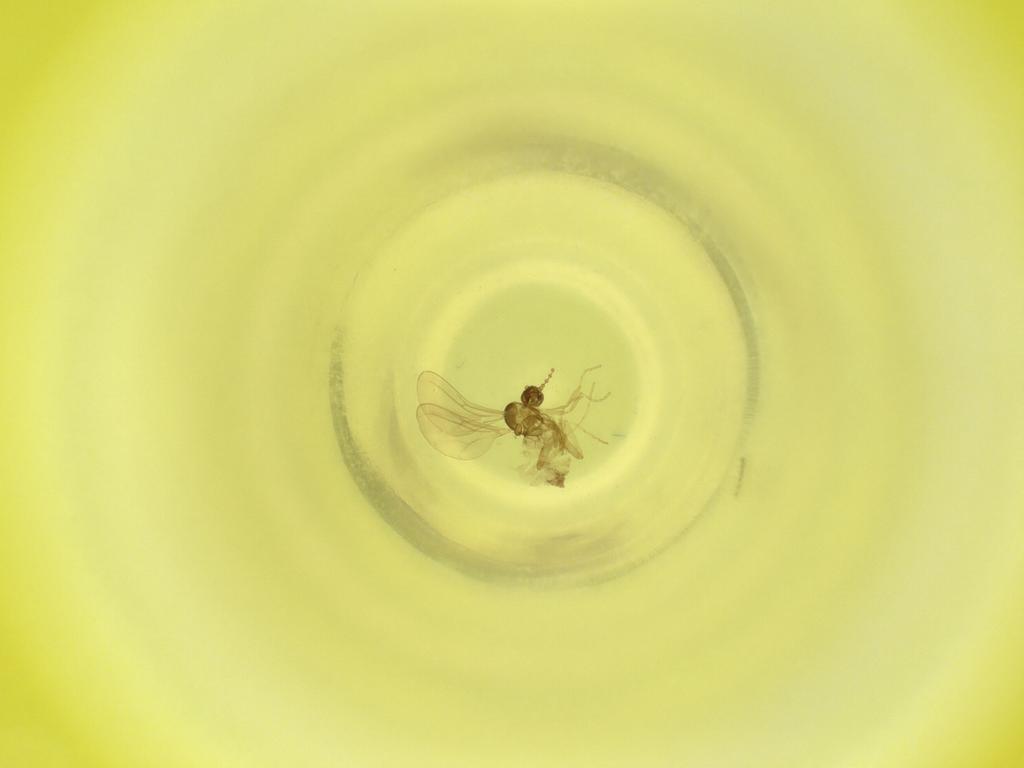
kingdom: Animalia
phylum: Arthropoda
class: Insecta
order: Diptera
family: Cecidomyiidae
